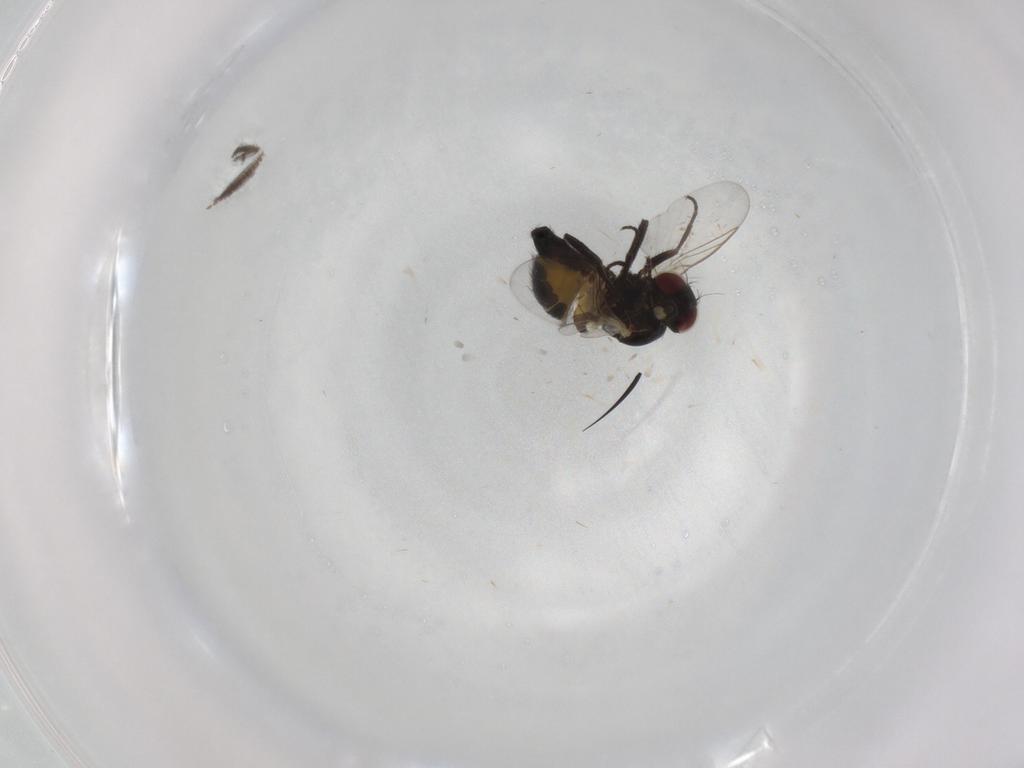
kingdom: Animalia
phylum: Arthropoda
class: Insecta
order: Diptera
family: Agromyzidae
